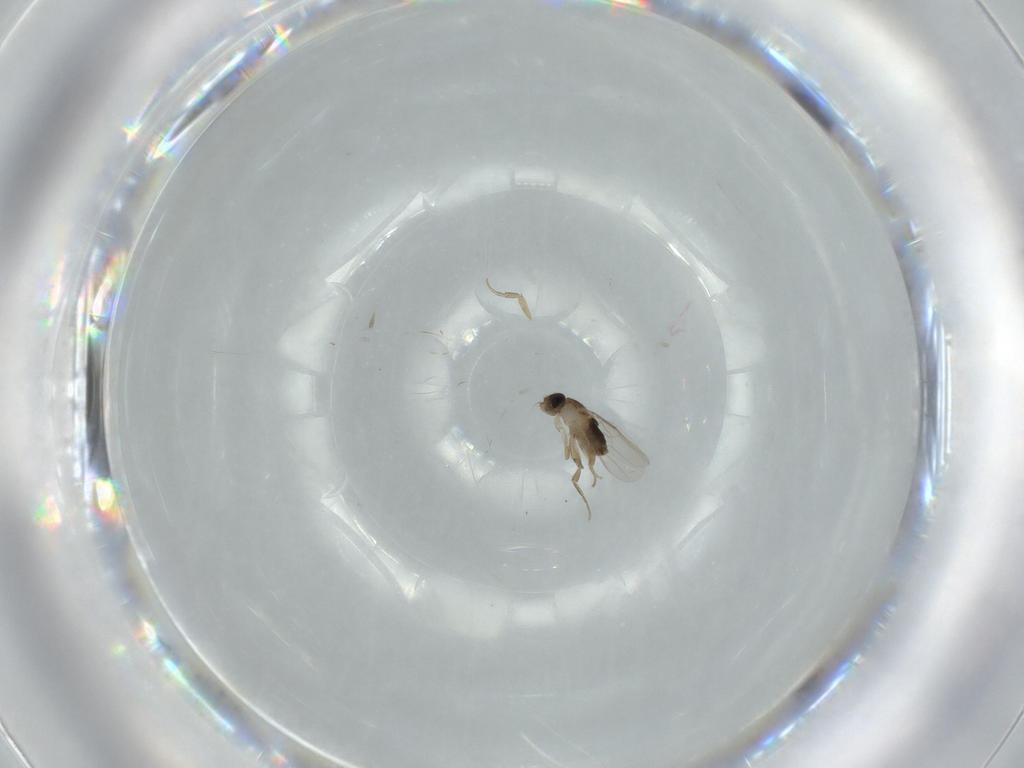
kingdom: Animalia
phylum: Arthropoda
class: Insecta
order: Diptera
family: Phoridae
